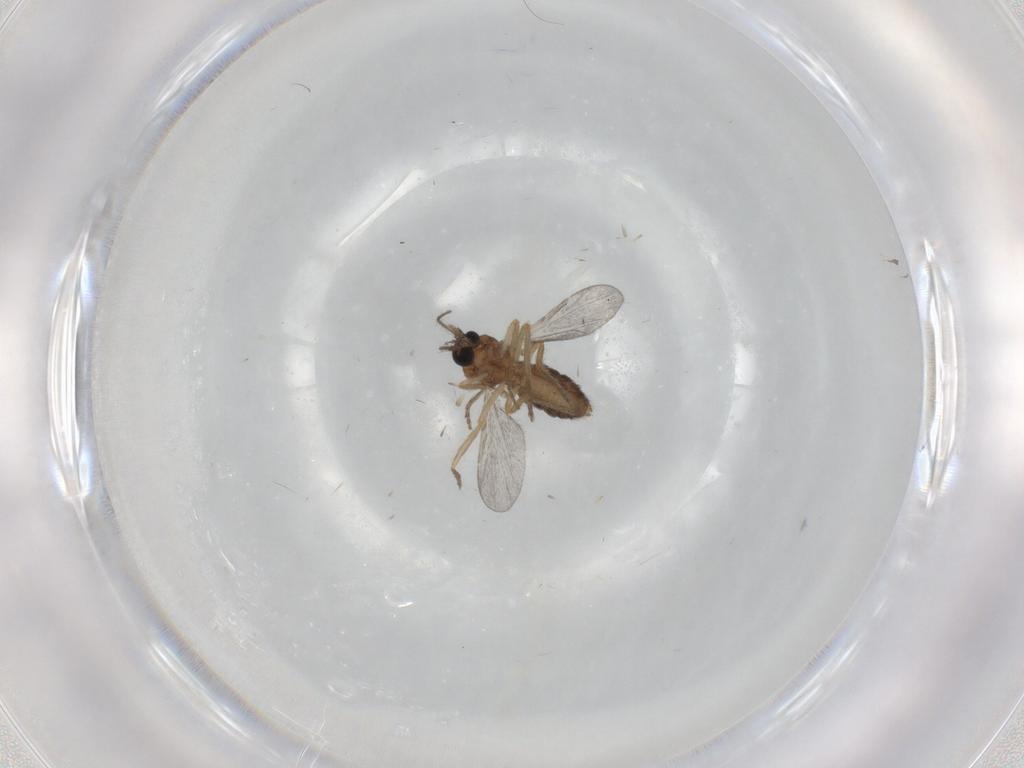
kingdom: Animalia
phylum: Arthropoda
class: Insecta
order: Diptera
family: Ceratopogonidae
